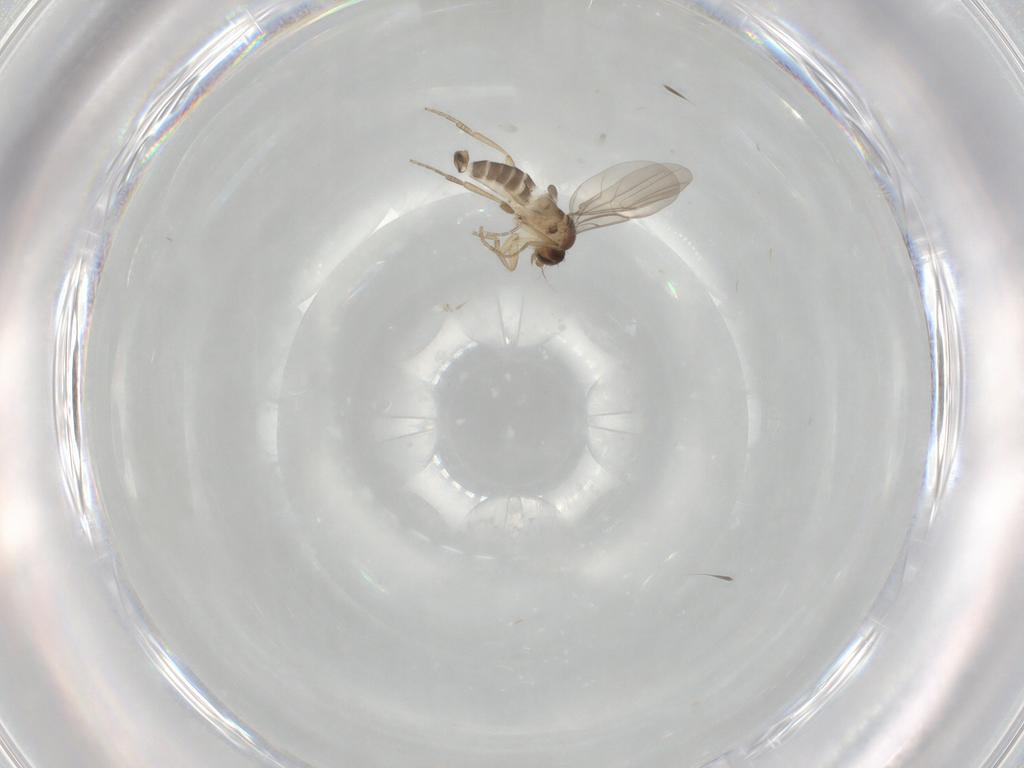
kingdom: Animalia
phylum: Arthropoda
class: Insecta
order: Diptera
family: Phoridae
